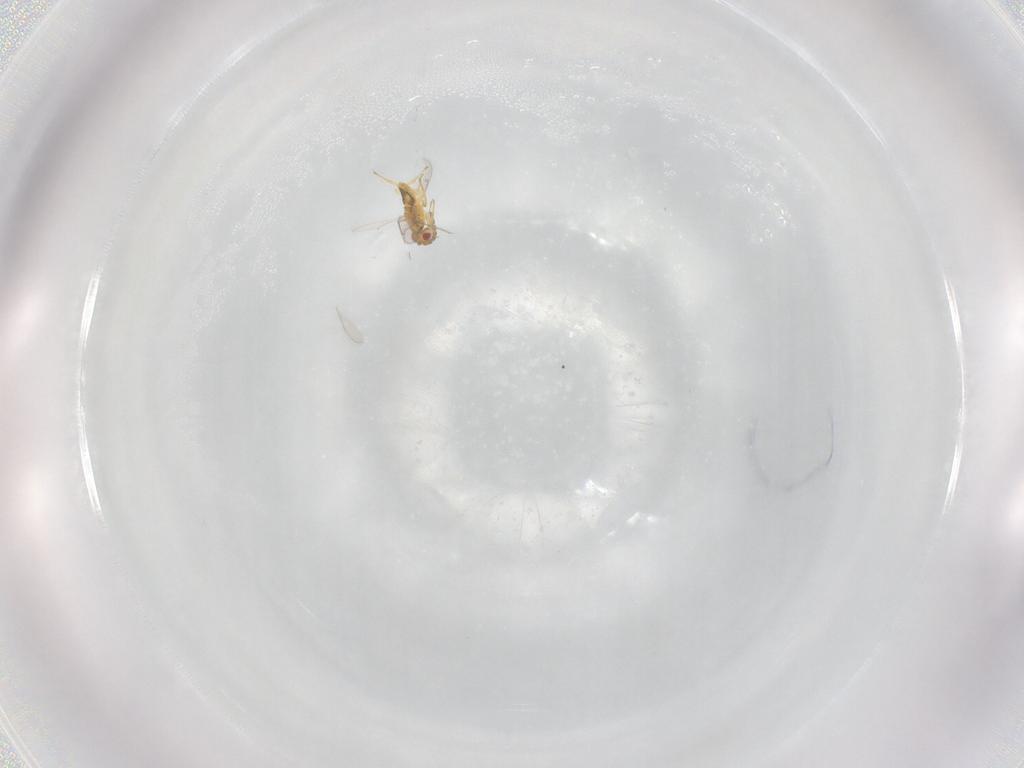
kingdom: Animalia
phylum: Arthropoda
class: Insecta
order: Hymenoptera
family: Aphelinidae
